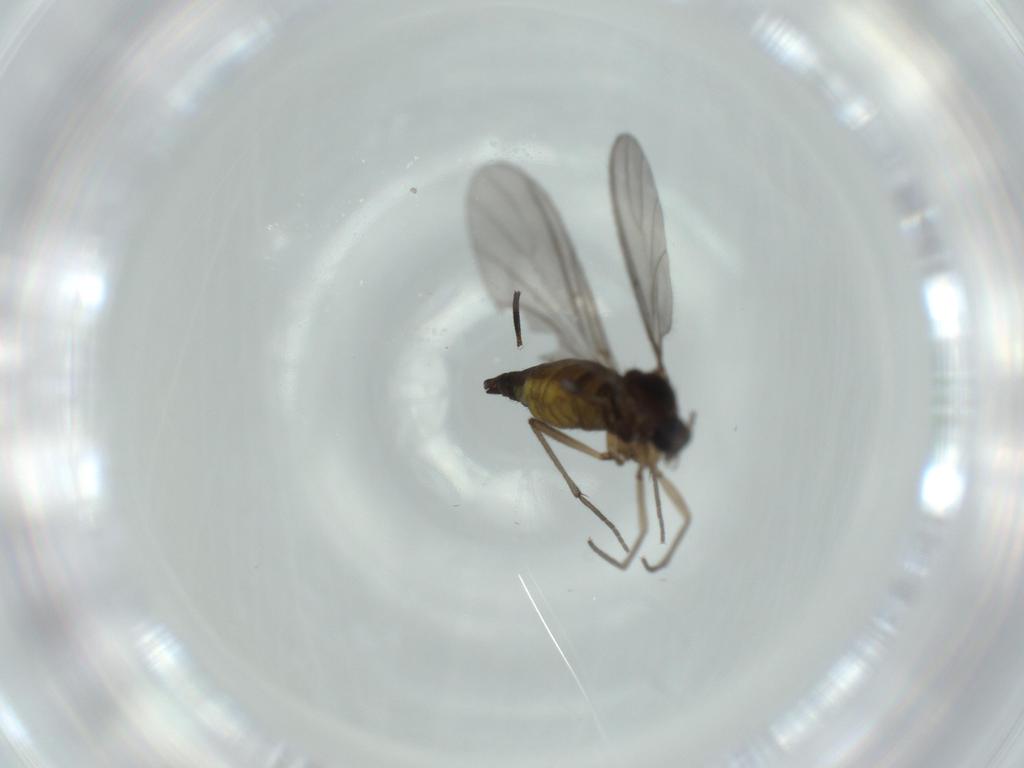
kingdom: Animalia
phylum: Arthropoda
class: Insecta
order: Diptera
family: Sciaridae
